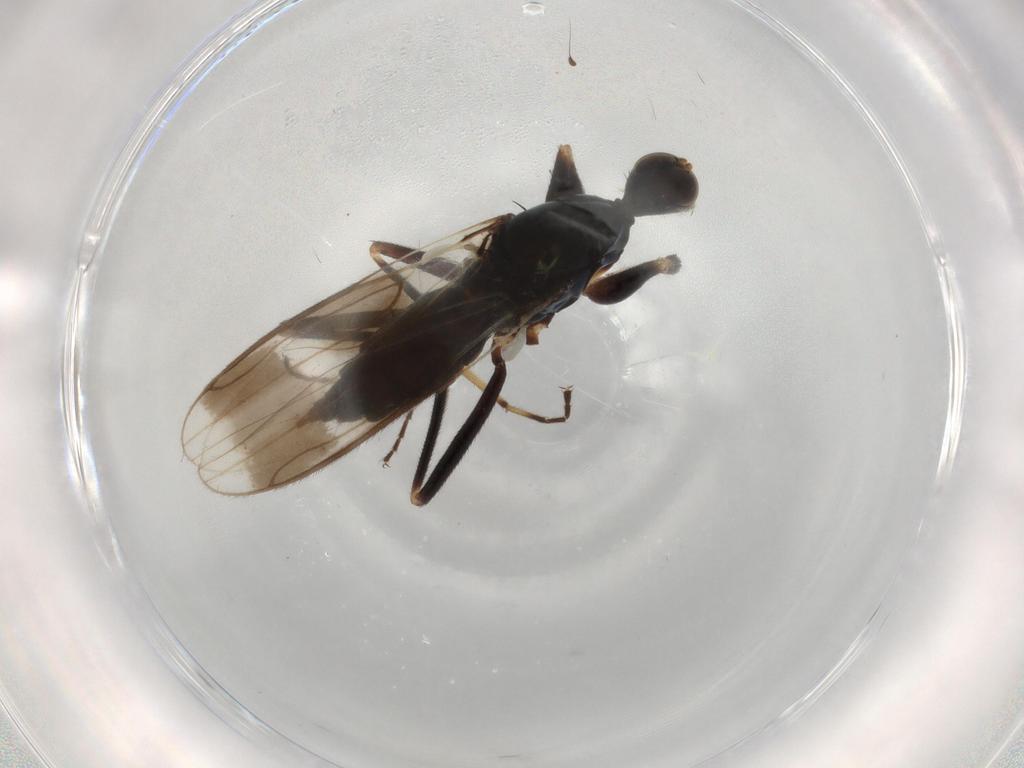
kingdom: Animalia
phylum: Arthropoda
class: Insecta
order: Diptera
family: Hybotidae
